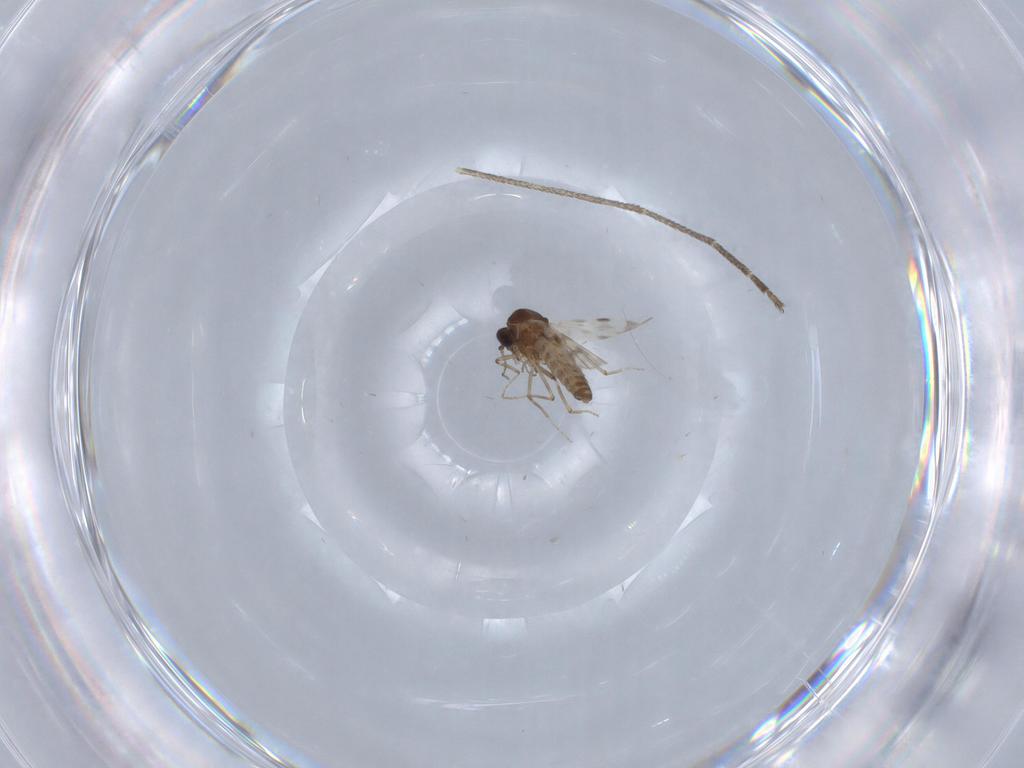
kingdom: Animalia
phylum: Arthropoda
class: Insecta
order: Diptera
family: Culicidae
